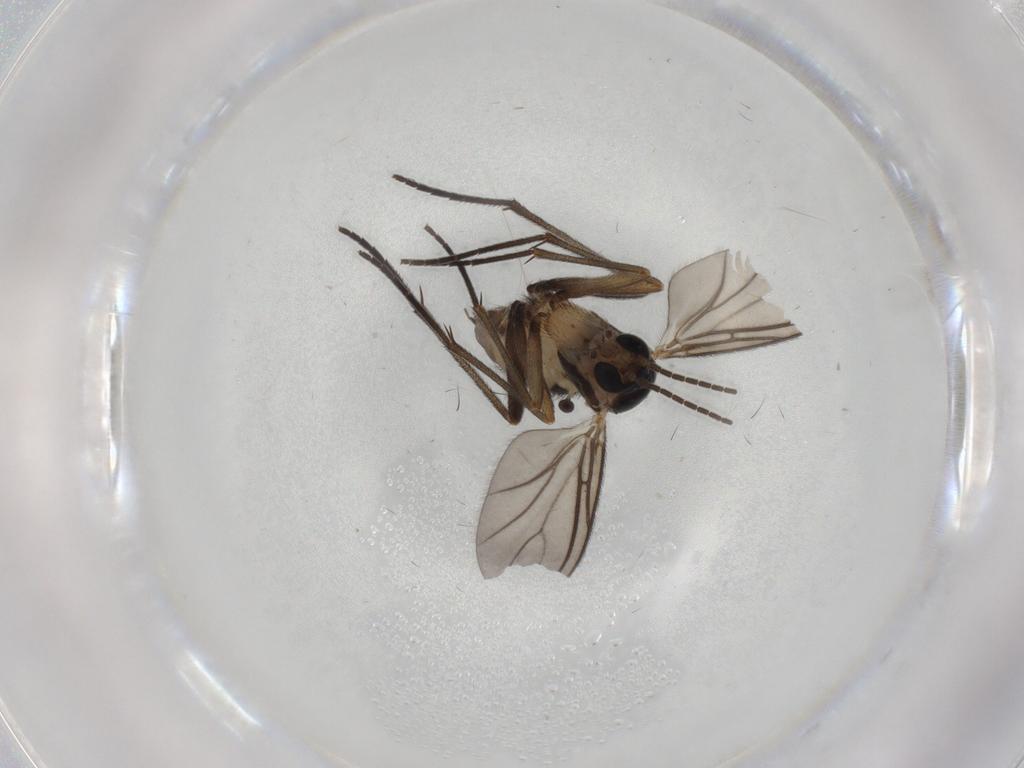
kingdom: Animalia
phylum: Arthropoda
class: Insecta
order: Diptera
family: Sciaridae
